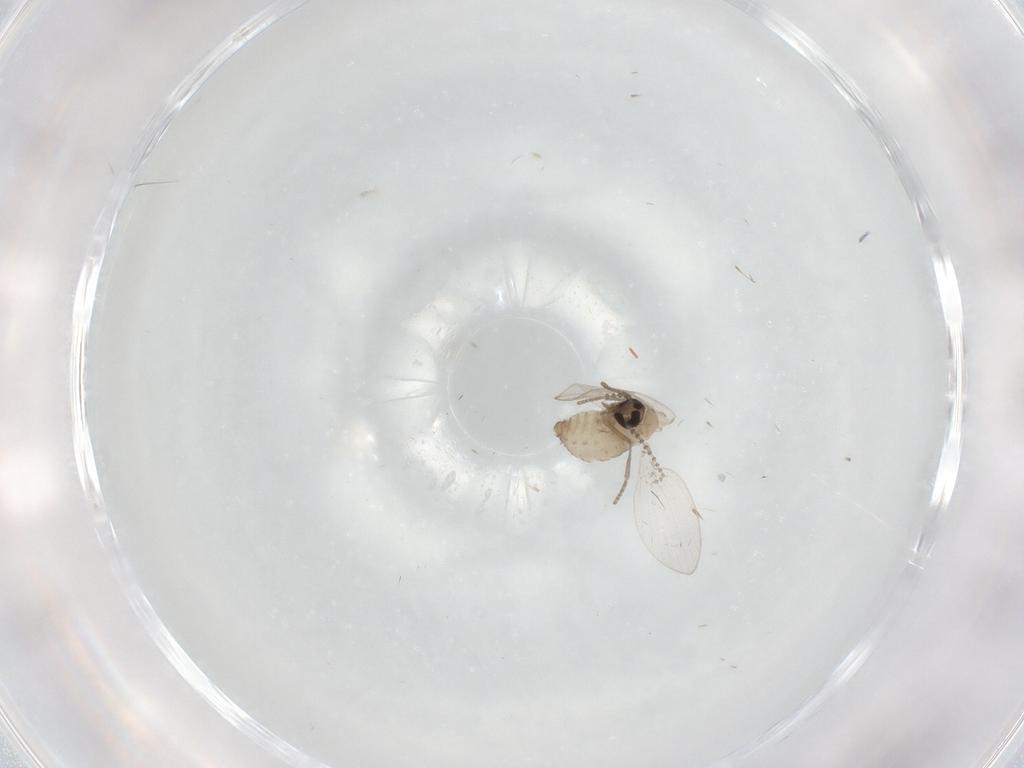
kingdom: Animalia
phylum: Arthropoda
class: Insecta
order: Diptera
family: Psychodidae
